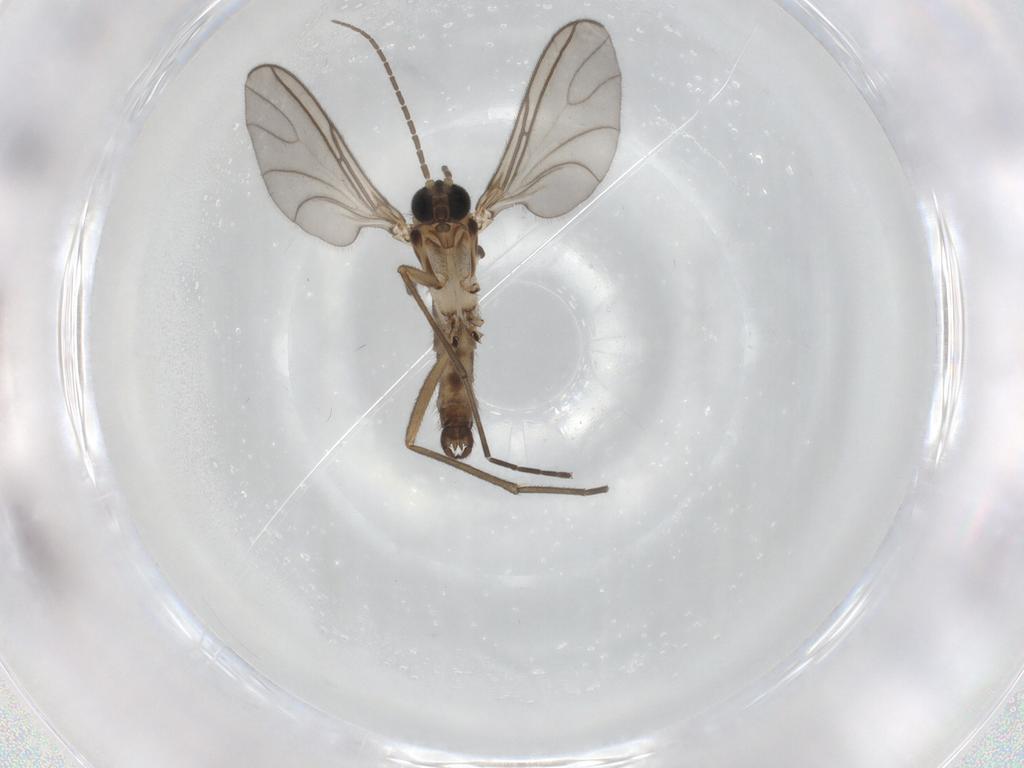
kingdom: Animalia
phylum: Arthropoda
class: Insecta
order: Diptera
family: Sciaridae
